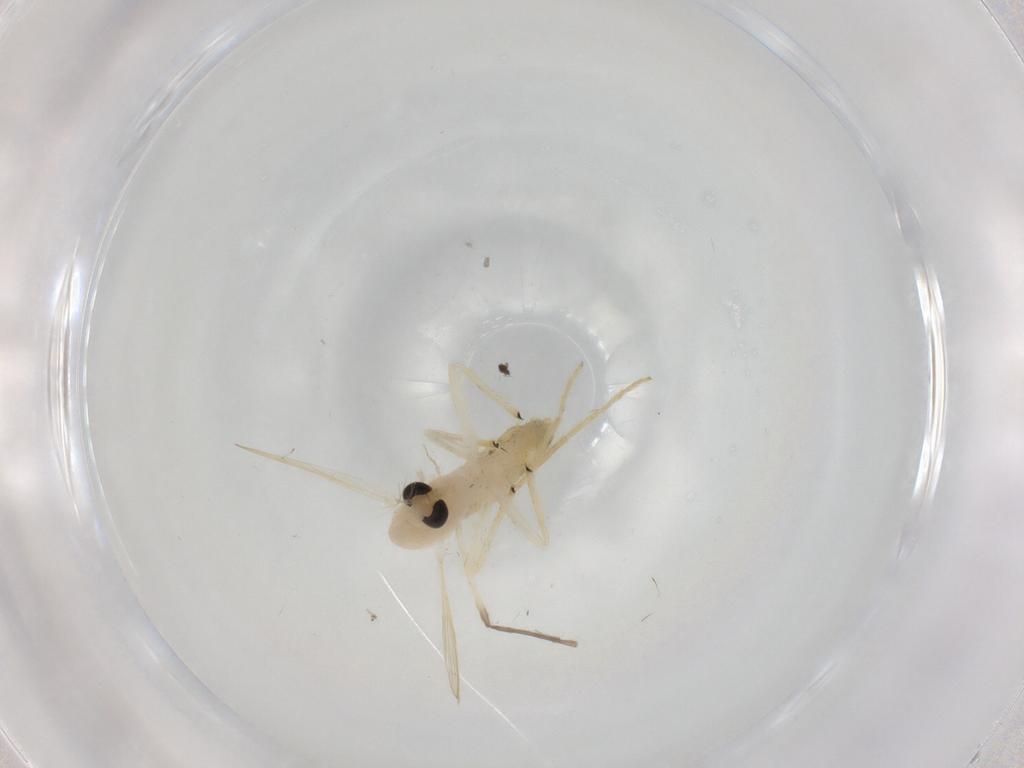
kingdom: Animalia
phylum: Arthropoda
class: Insecta
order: Diptera
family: Chironomidae
